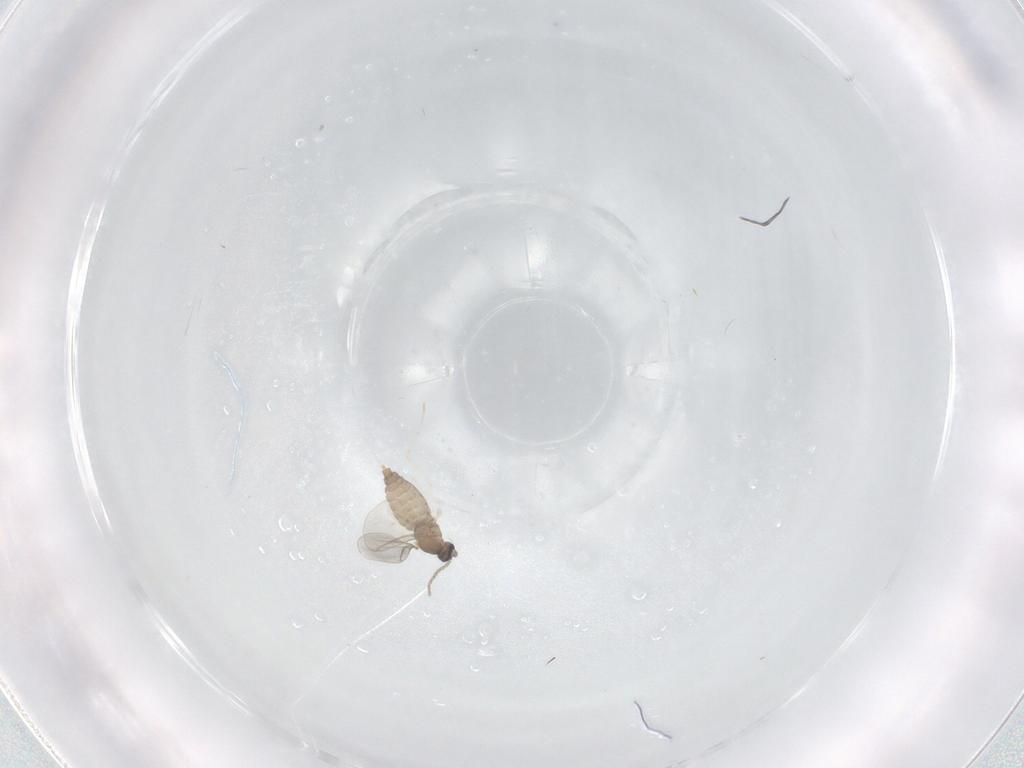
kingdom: Animalia
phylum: Arthropoda
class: Insecta
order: Diptera
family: Cecidomyiidae
